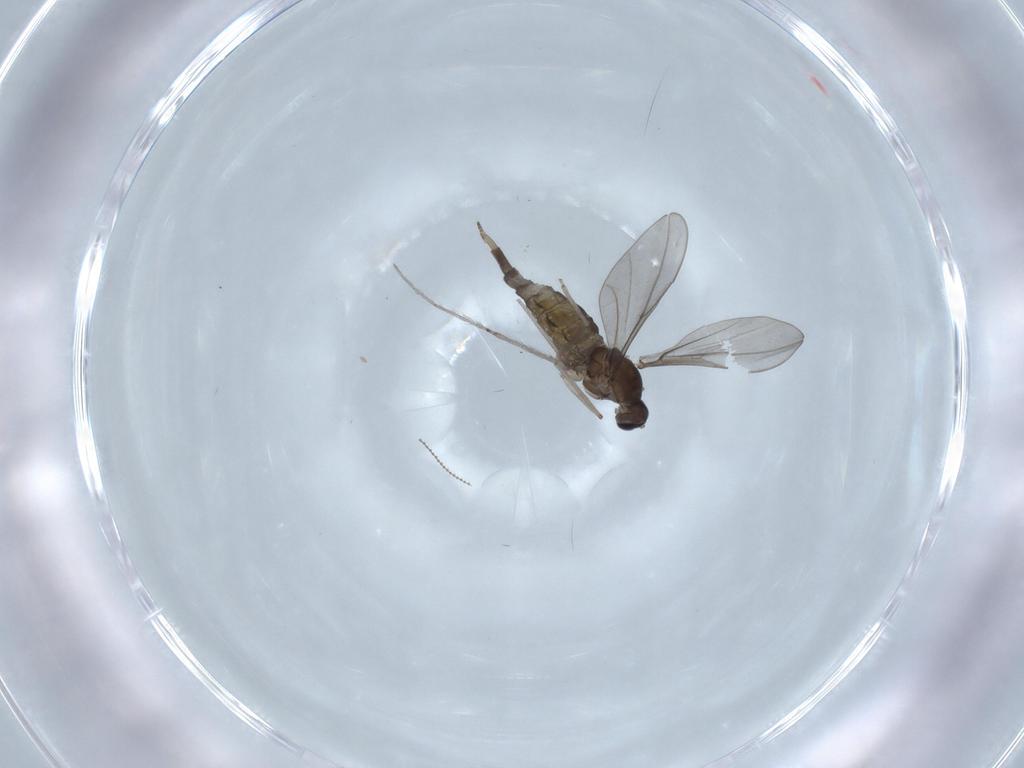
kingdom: Animalia
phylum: Arthropoda
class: Insecta
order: Diptera
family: Cecidomyiidae
